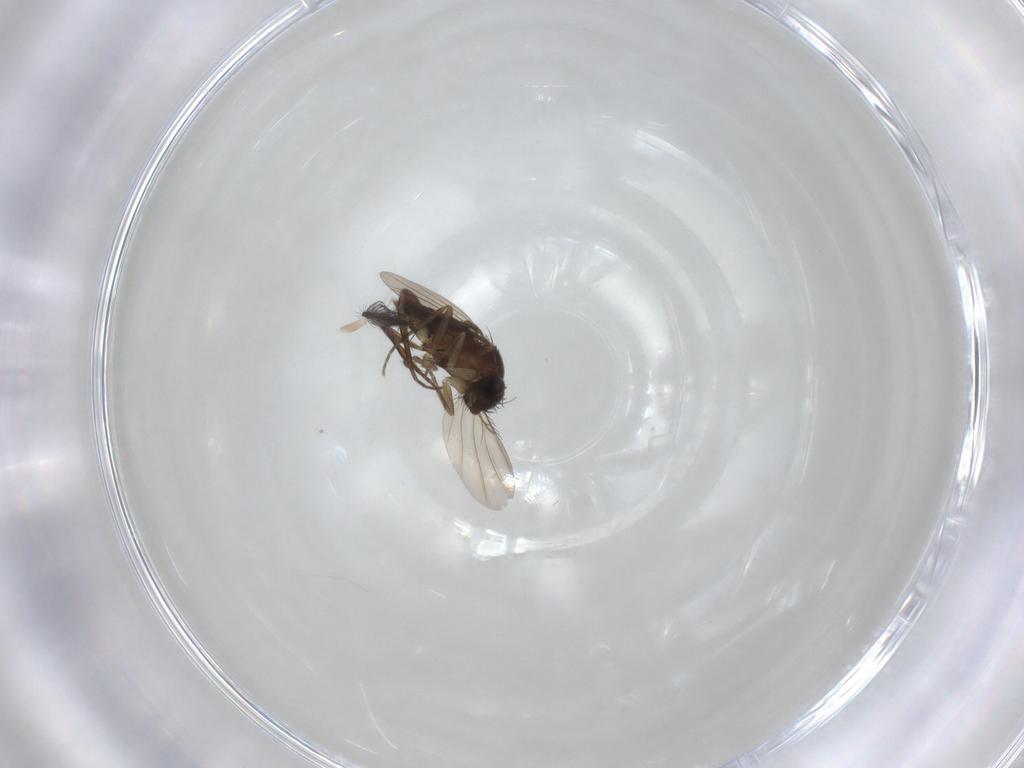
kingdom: Animalia
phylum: Arthropoda
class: Insecta
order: Diptera
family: Phoridae
